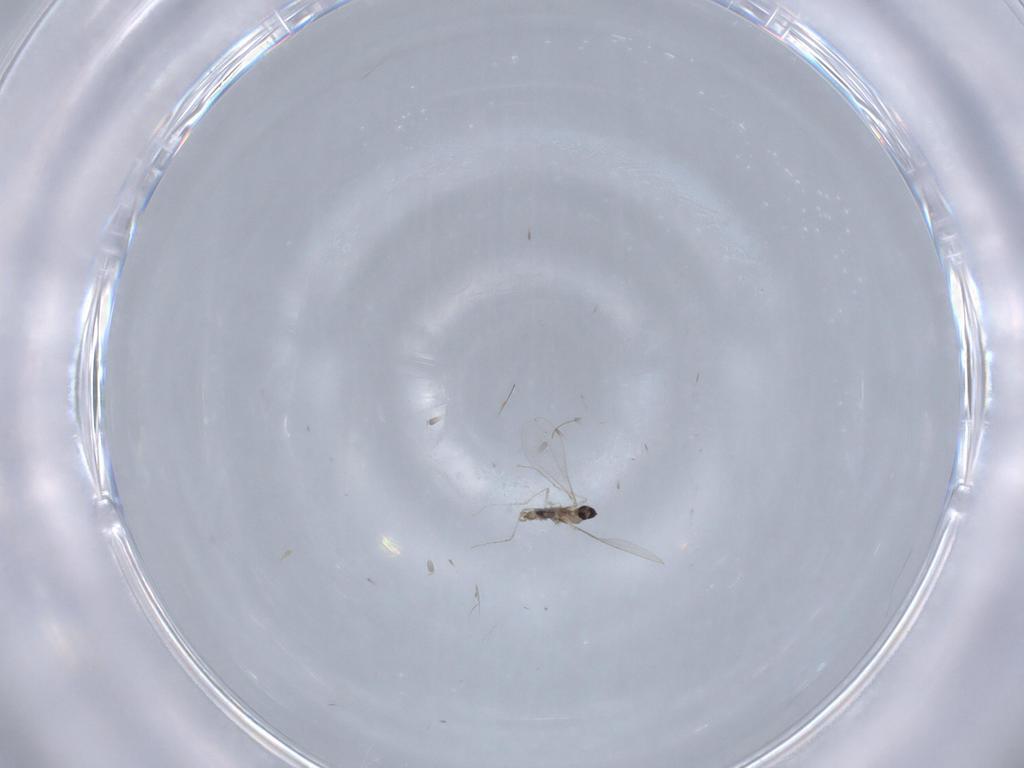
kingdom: Animalia
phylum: Arthropoda
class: Insecta
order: Diptera
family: Cecidomyiidae
